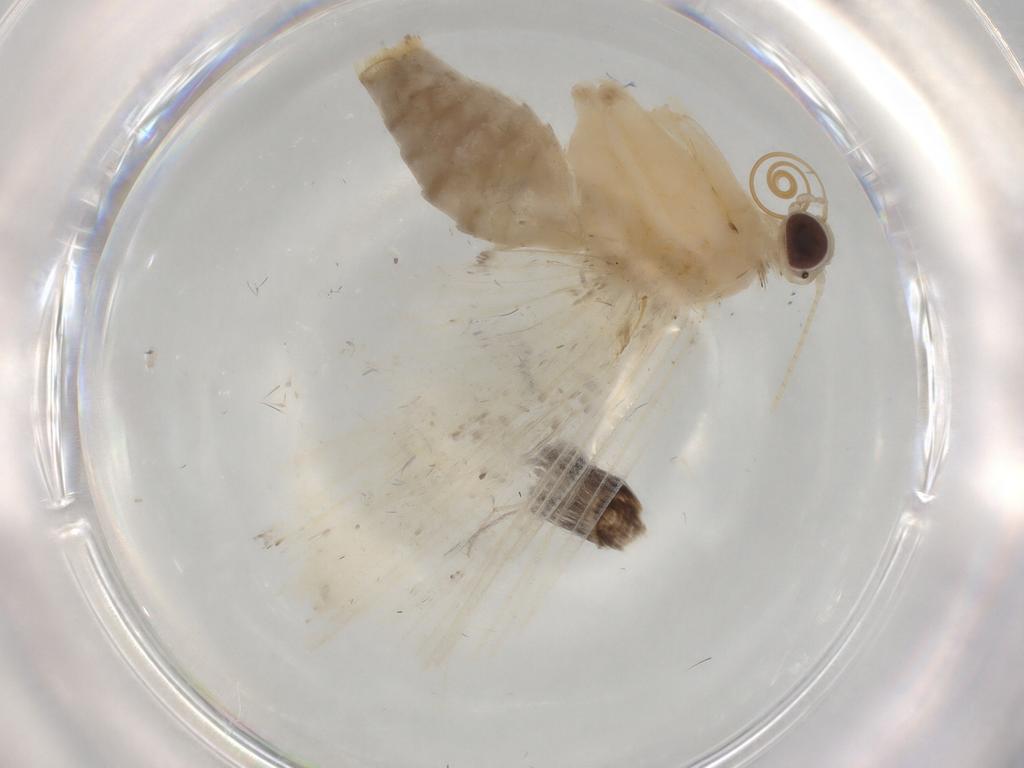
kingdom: Animalia
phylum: Arthropoda
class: Insecta
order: Lepidoptera
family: Crambidae
